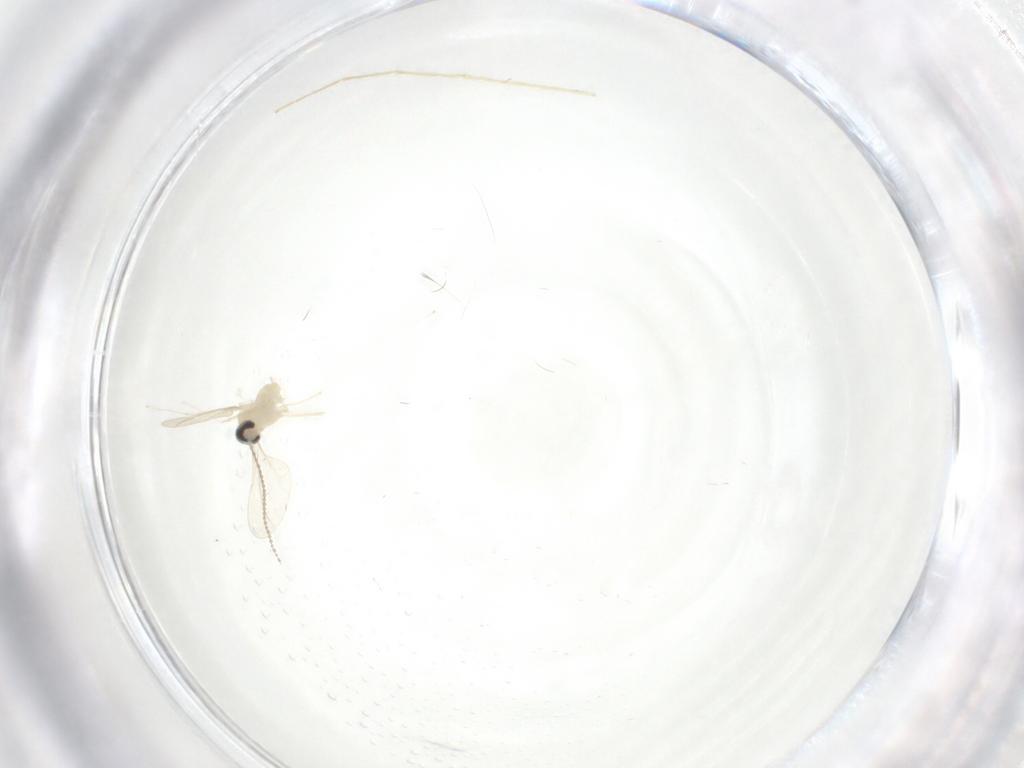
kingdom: Animalia
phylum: Arthropoda
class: Insecta
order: Diptera
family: Cecidomyiidae
